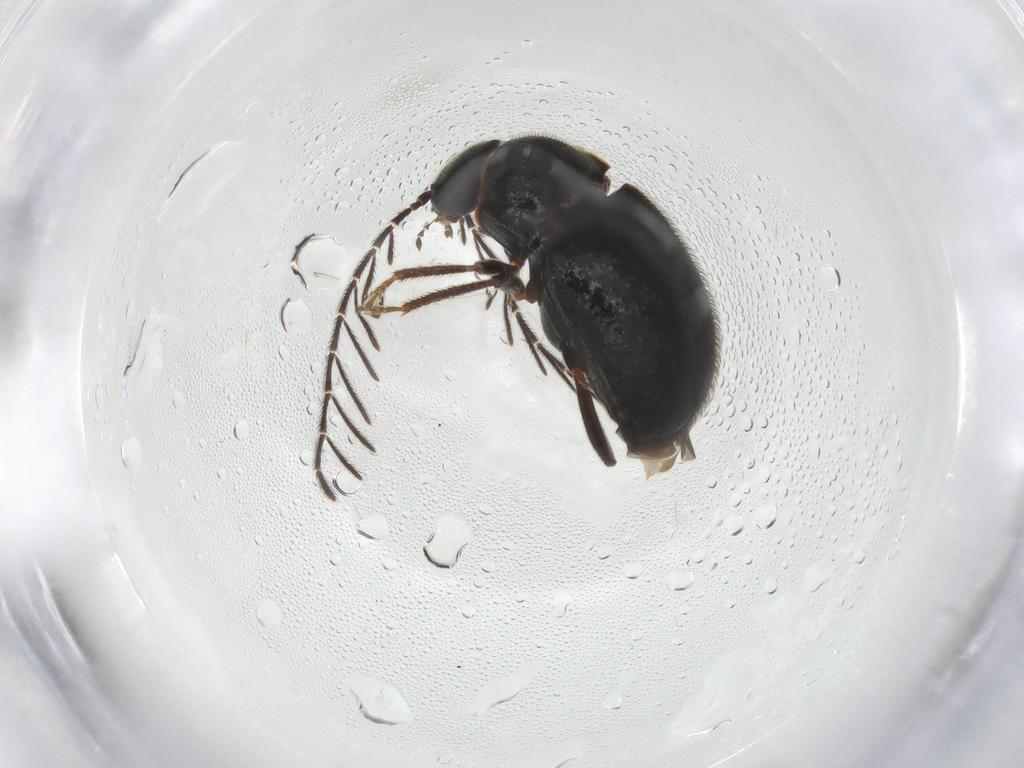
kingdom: Animalia
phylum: Arthropoda
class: Insecta
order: Coleoptera
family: Ptilodactylidae
